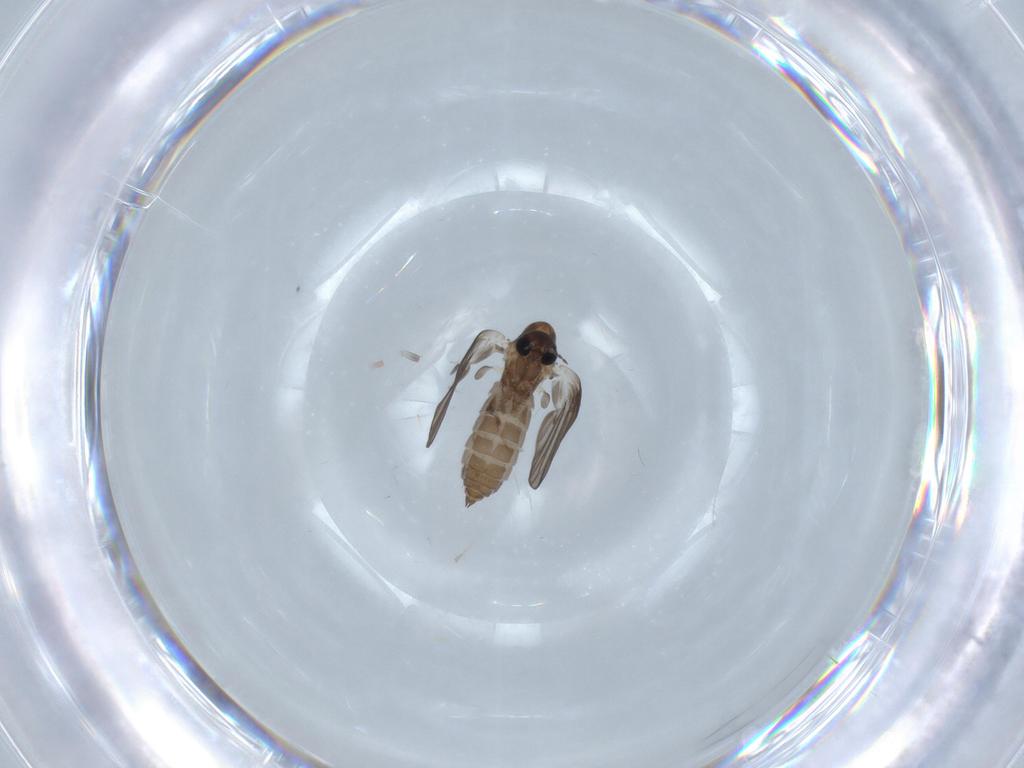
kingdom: Animalia
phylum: Arthropoda
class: Insecta
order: Diptera
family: Psychodidae
